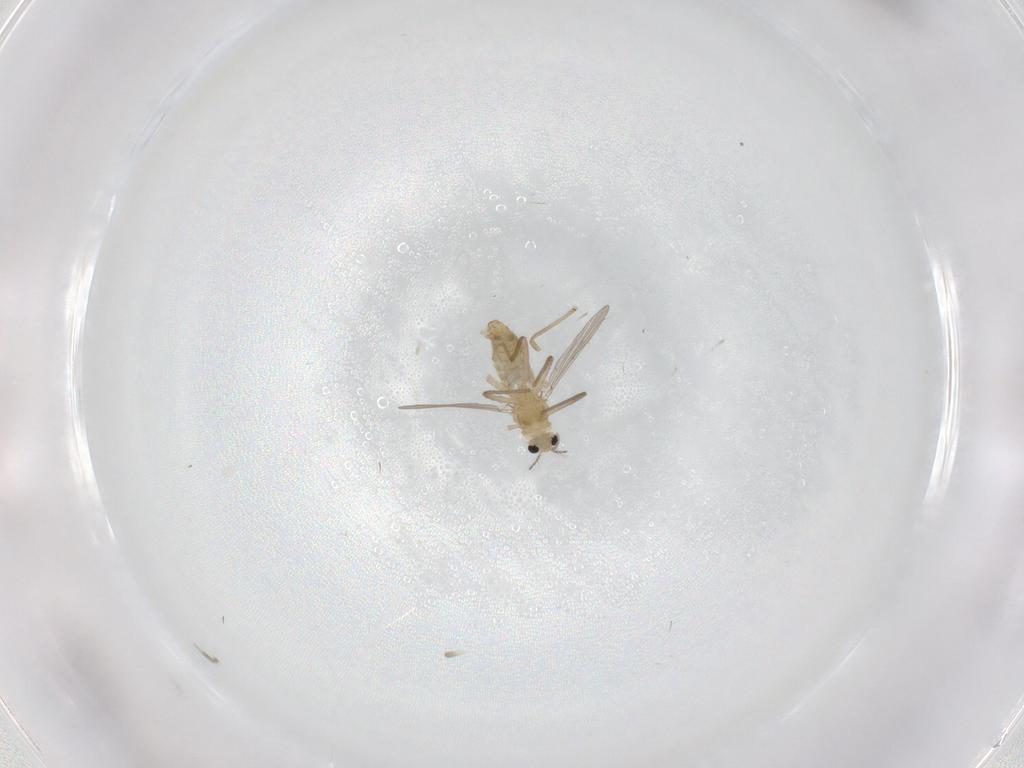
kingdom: Animalia
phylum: Arthropoda
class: Insecta
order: Diptera
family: Chironomidae
